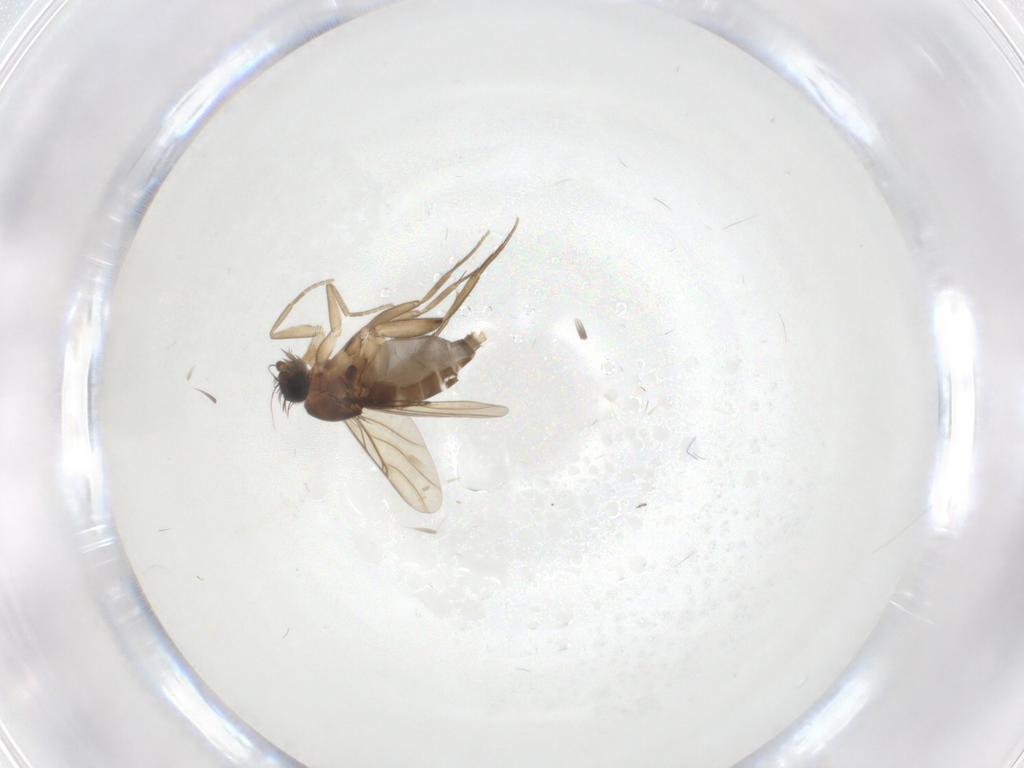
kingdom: Animalia
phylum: Arthropoda
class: Insecta
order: Diptera
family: Phoridae
